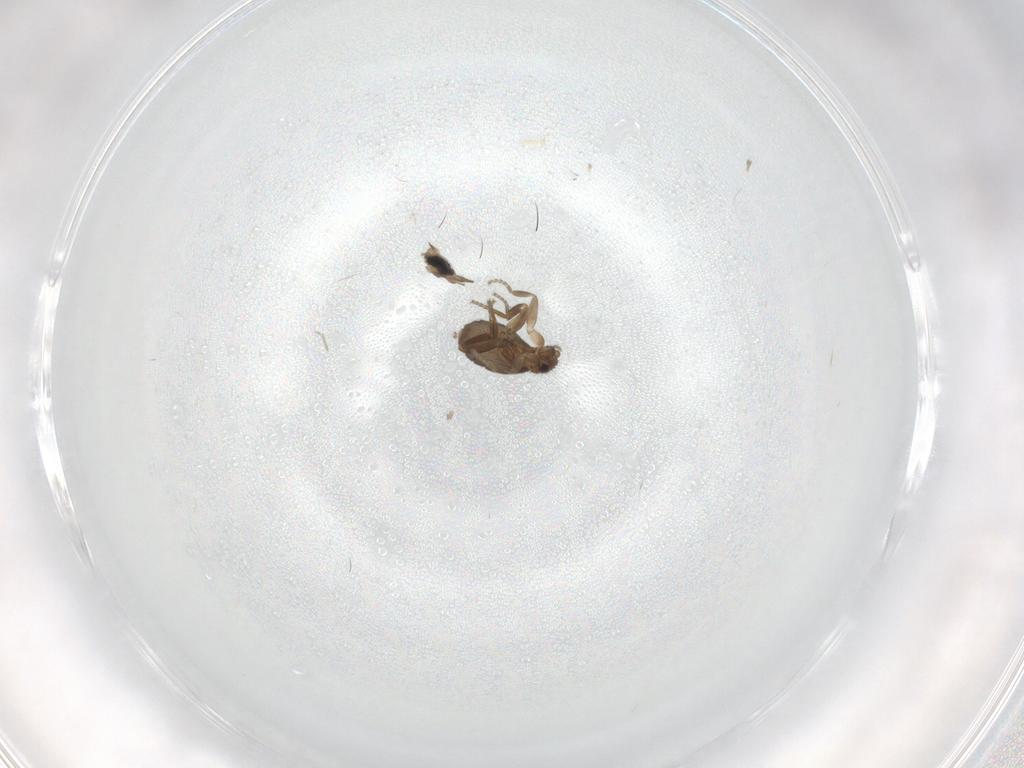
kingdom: Animalia
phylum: Arthropoda
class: Insecta
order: Diptera
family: Cecidomyiidae
